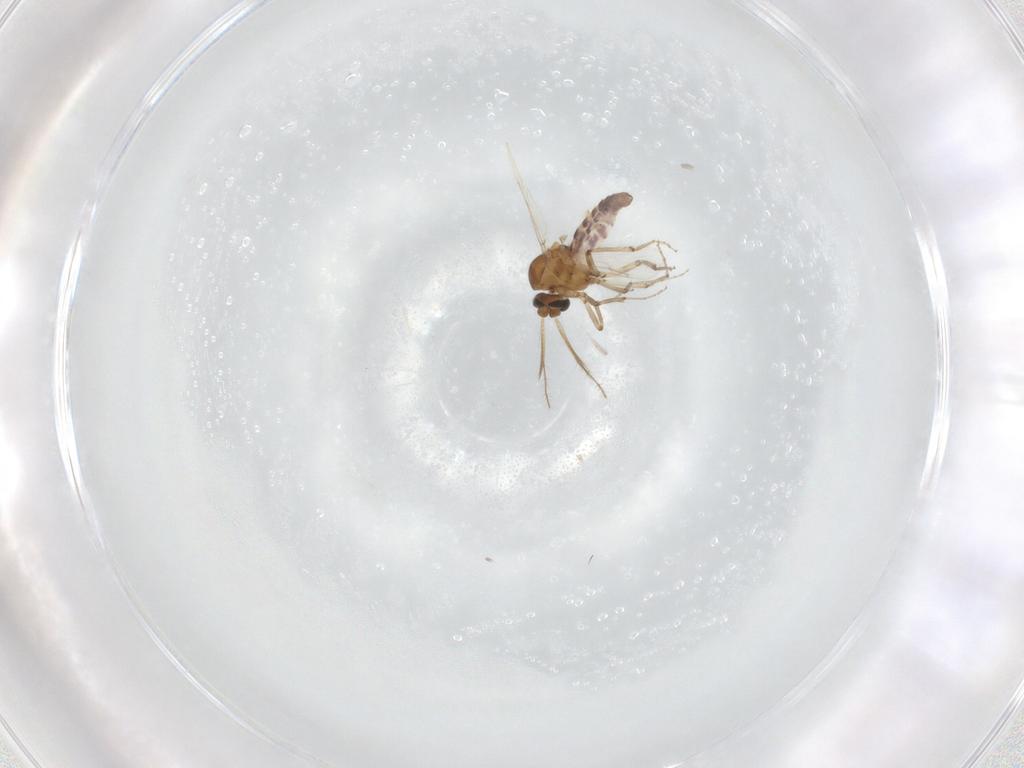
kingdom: Animalia
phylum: Arthropoda
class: Insecta
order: Diptera
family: Ceratopogonidae
